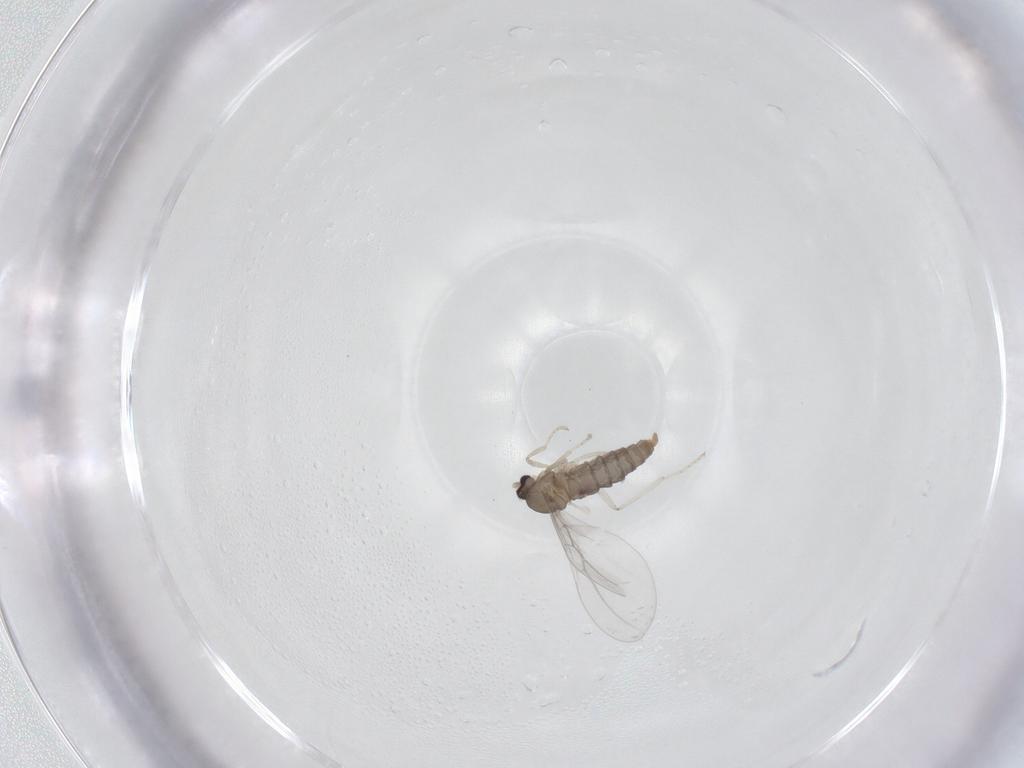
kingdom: Animalia
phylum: Arthropoda
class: Insecta
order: Diptera
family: Cecidomyiidae
